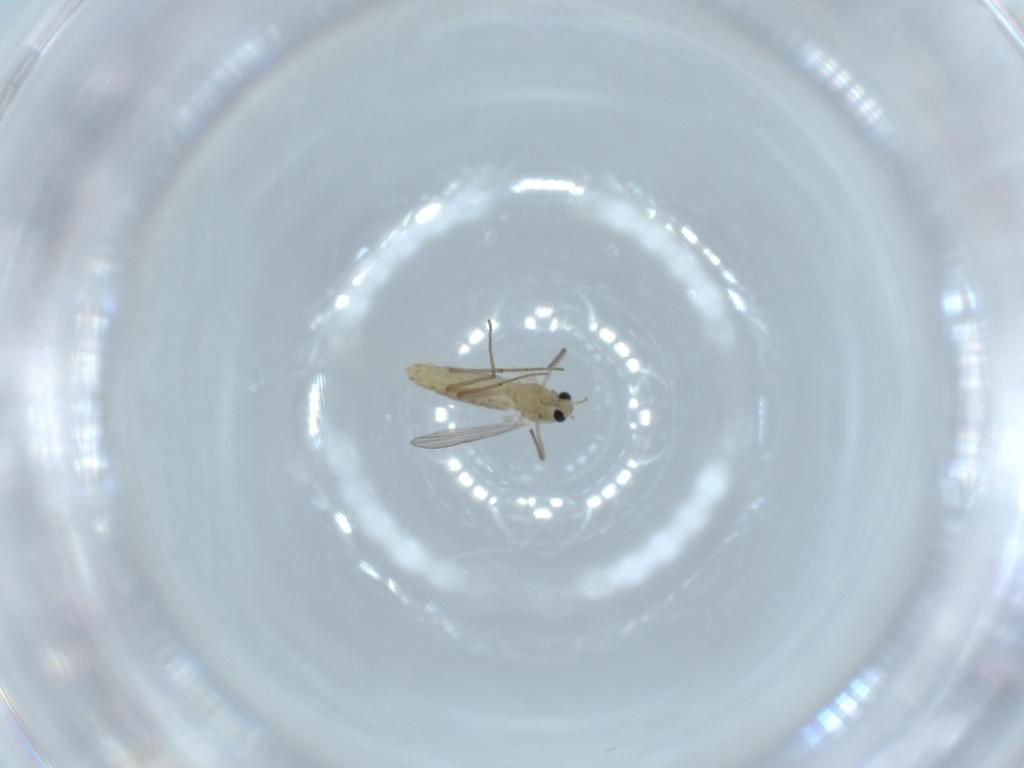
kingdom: Animalia
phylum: Arthropoda
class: Insecta
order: Diptera
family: Chironomidae
